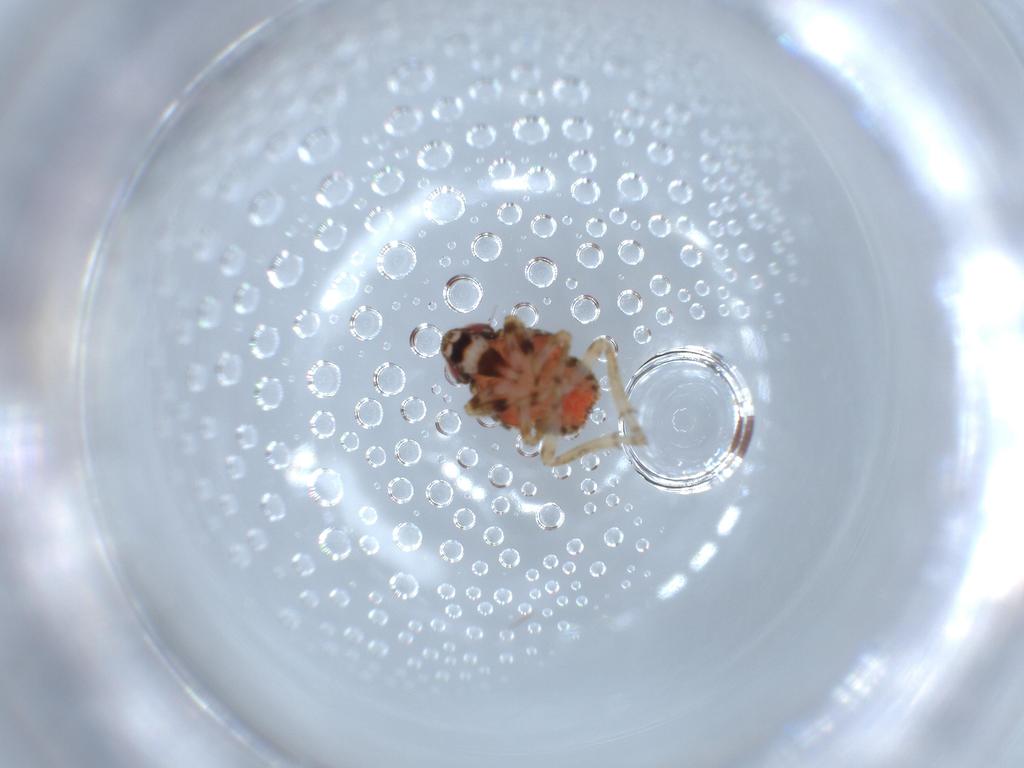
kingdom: Animalia
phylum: Arthropoda
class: Insecta
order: Hemiptera
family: Issidae
